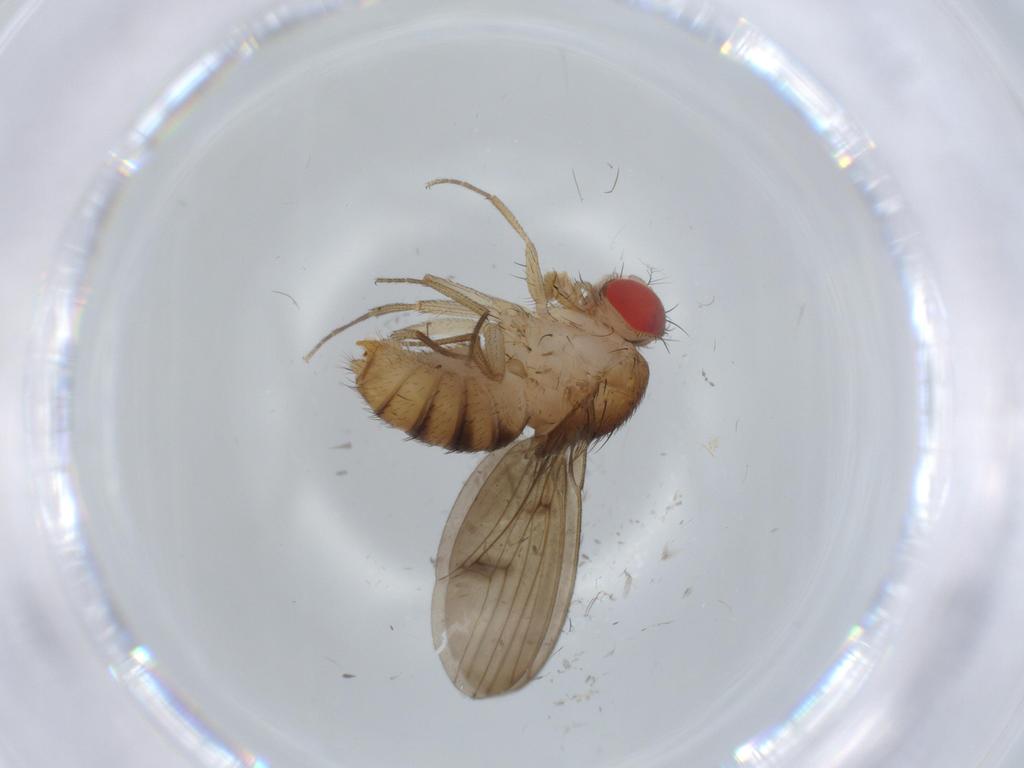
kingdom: Animalia
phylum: Arthropoda
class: Insecta
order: Diptera
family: Drosophilidae
